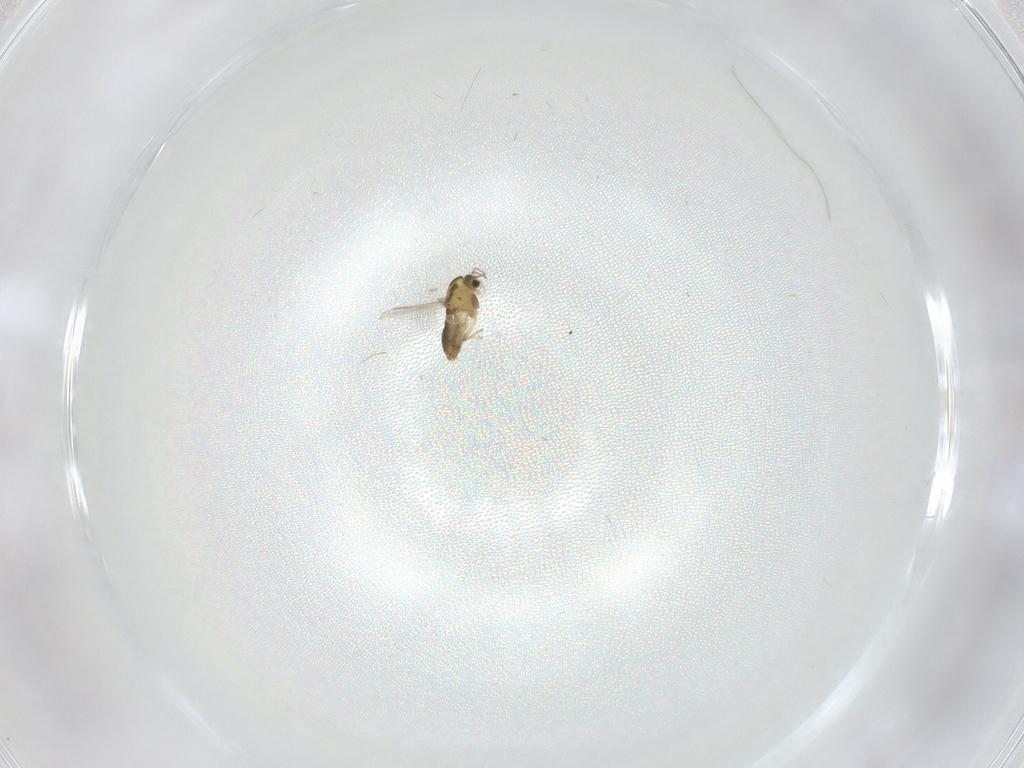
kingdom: Animalia
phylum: Arthropoda
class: Insecta
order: Diptera
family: Chironomidae
